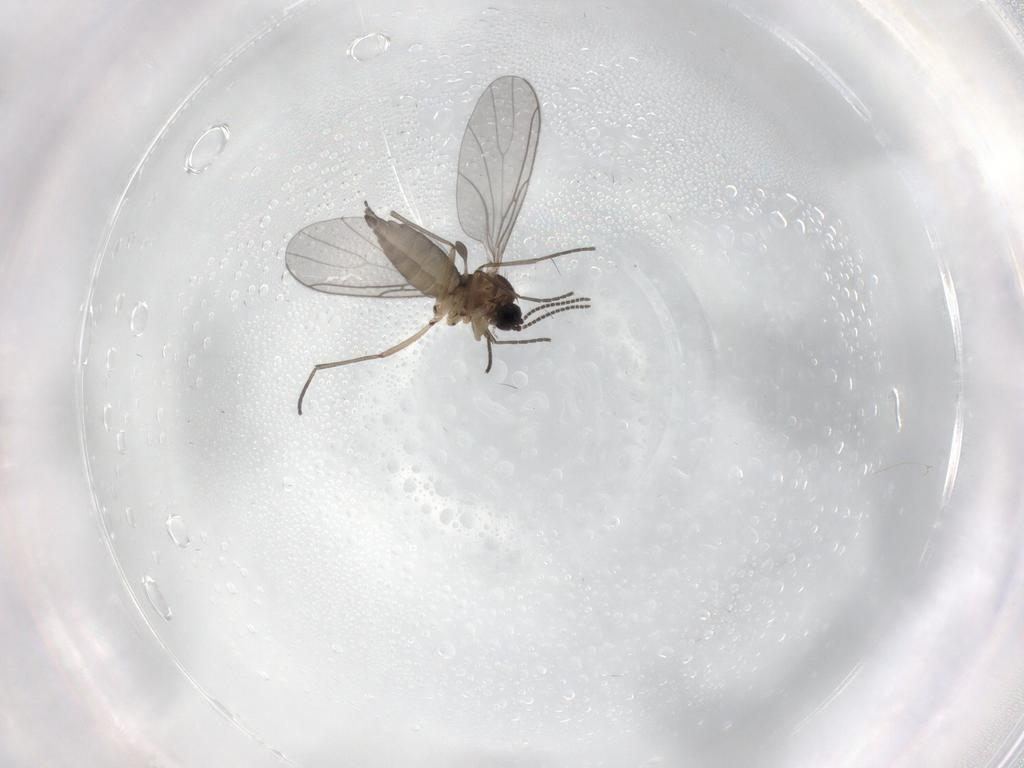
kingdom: Animalia
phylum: Arthropoda
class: Insecta
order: Diptera
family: Sciaridae
